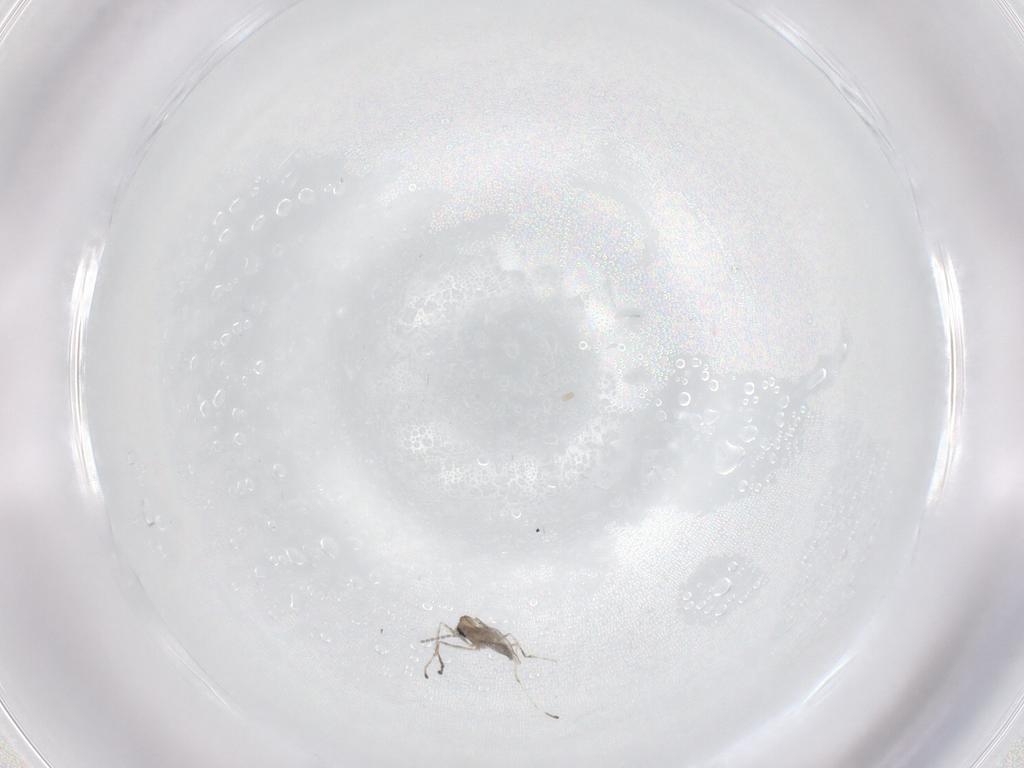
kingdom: Animalia
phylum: Arthropoda
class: Insecta
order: Diptera
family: Cecidomyiidae
